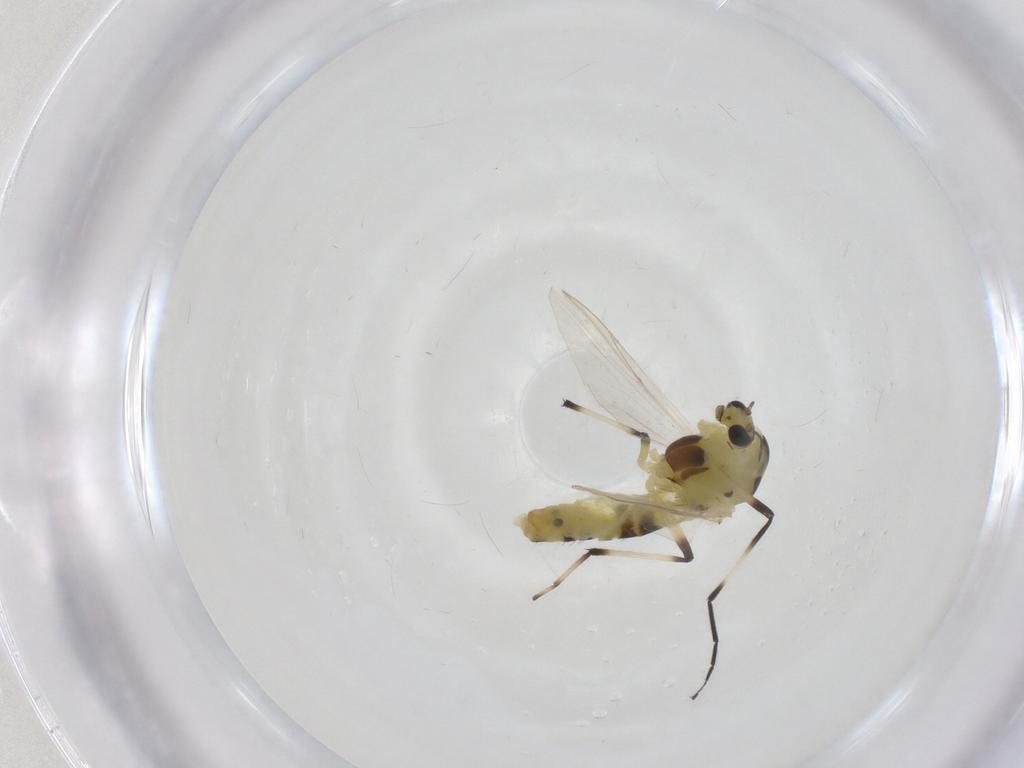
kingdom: Animalia
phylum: Arthropoda
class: Insecta
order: Diptera
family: Chironomidae
